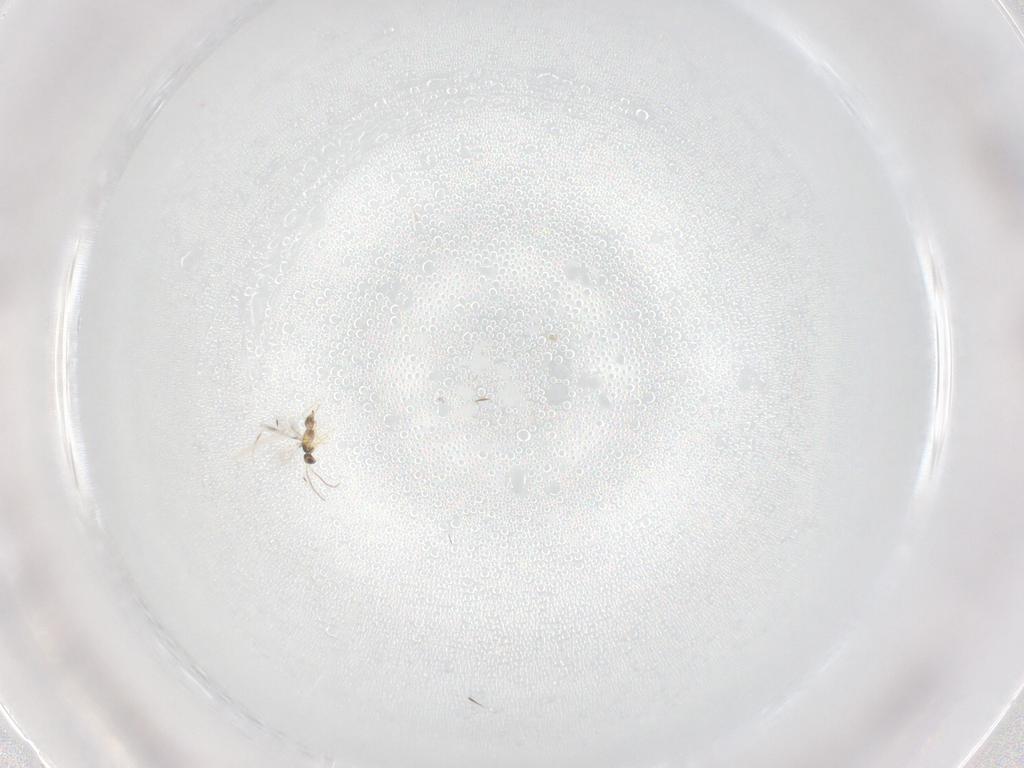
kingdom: Animalia
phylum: Arthropoda
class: Insecta
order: Hymenoptera
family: Mymaridae
